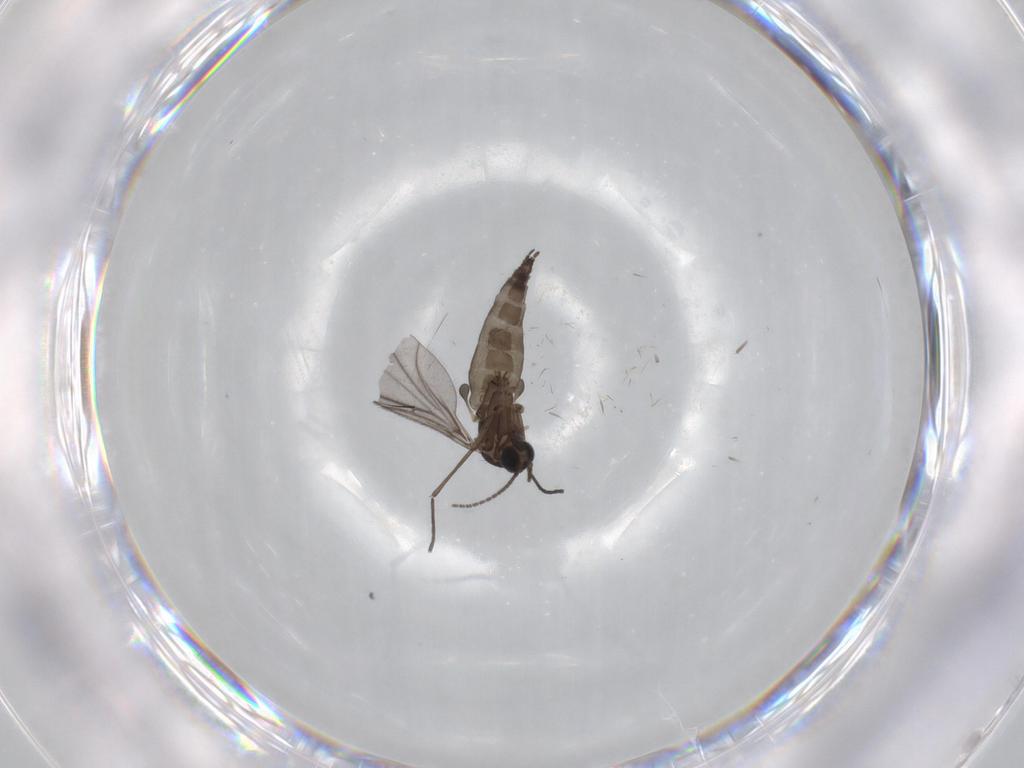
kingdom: Animalia
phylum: Arthropoda
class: Insecta
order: Diptera
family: Sciaridae
